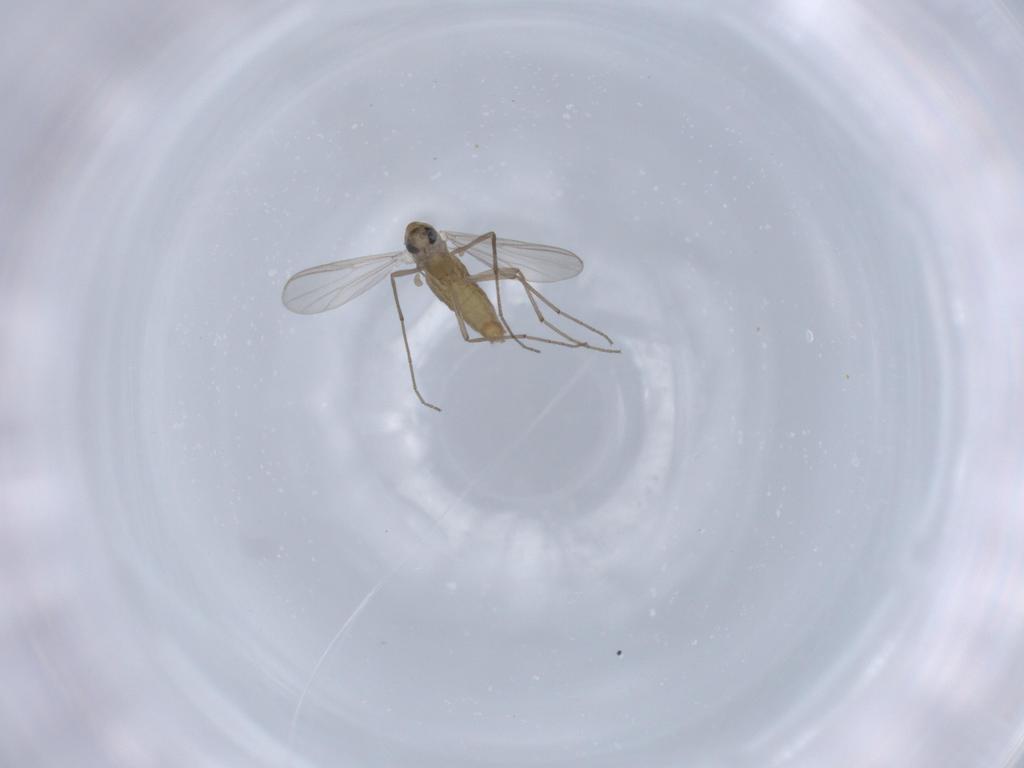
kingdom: Animalia
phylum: Arthropoda
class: Insecta
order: Diptera
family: Chironomidae
